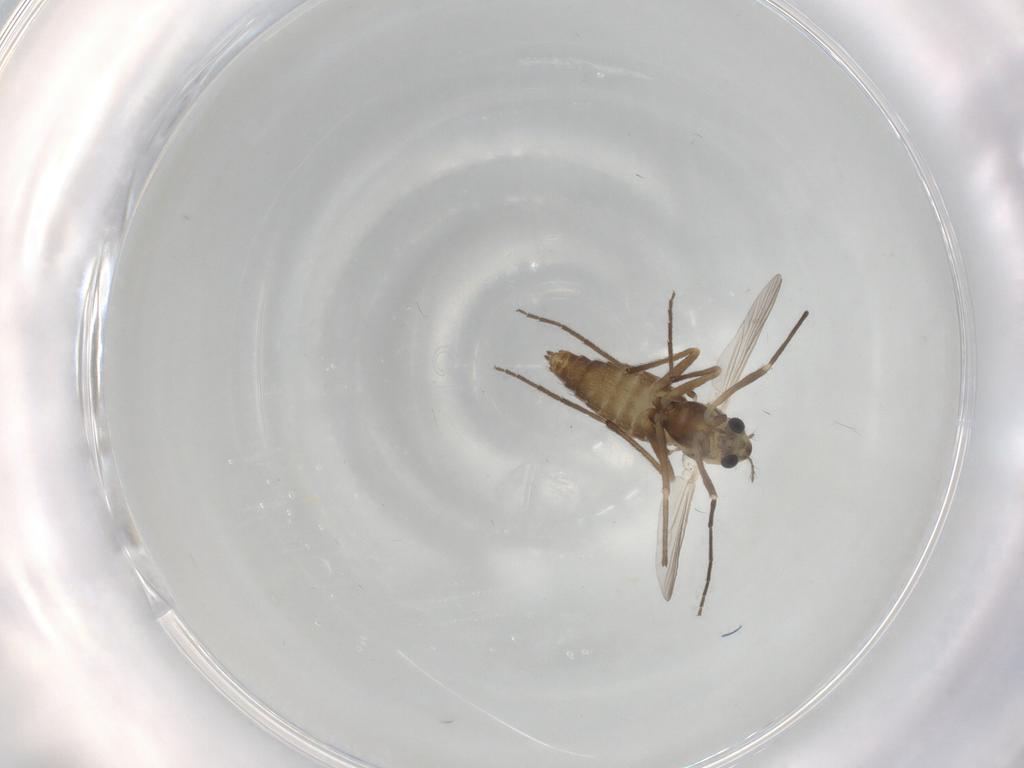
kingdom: Animalia
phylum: Arthropoda
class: Insecta
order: Diptera
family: Chironomidae
